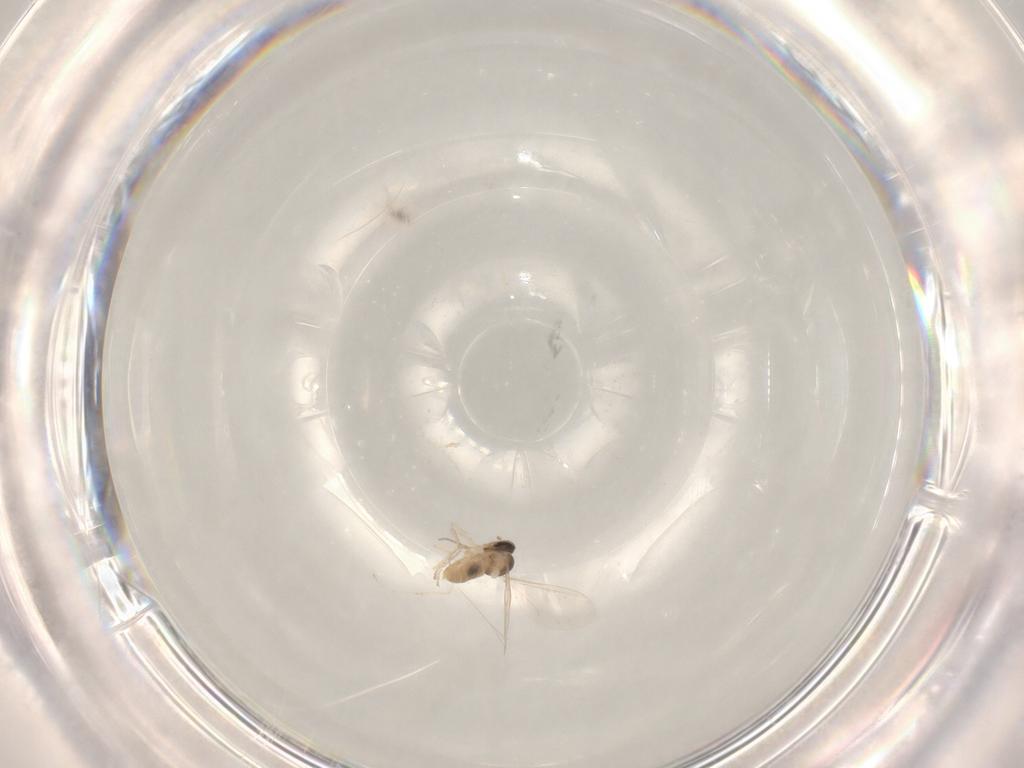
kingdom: Animalia
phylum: Arthropoda
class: Insecta
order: Diptera
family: Cecidomyiidae
